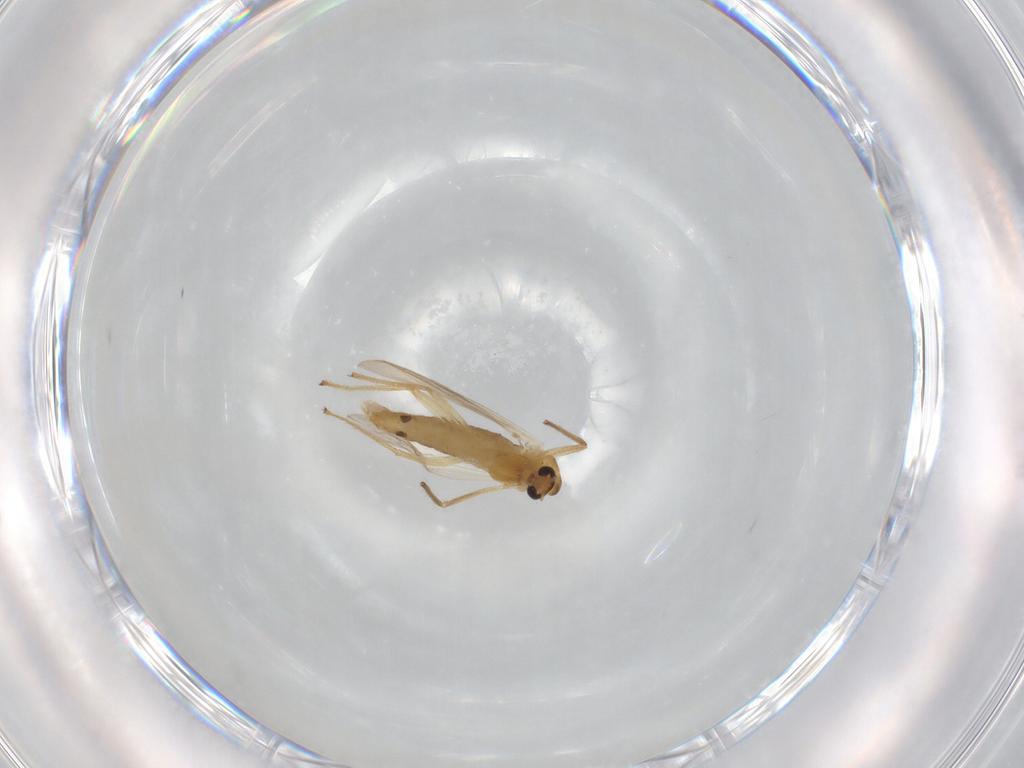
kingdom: Animalia
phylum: Arthropoda
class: Insecta
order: Diptera
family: Chironomidae
